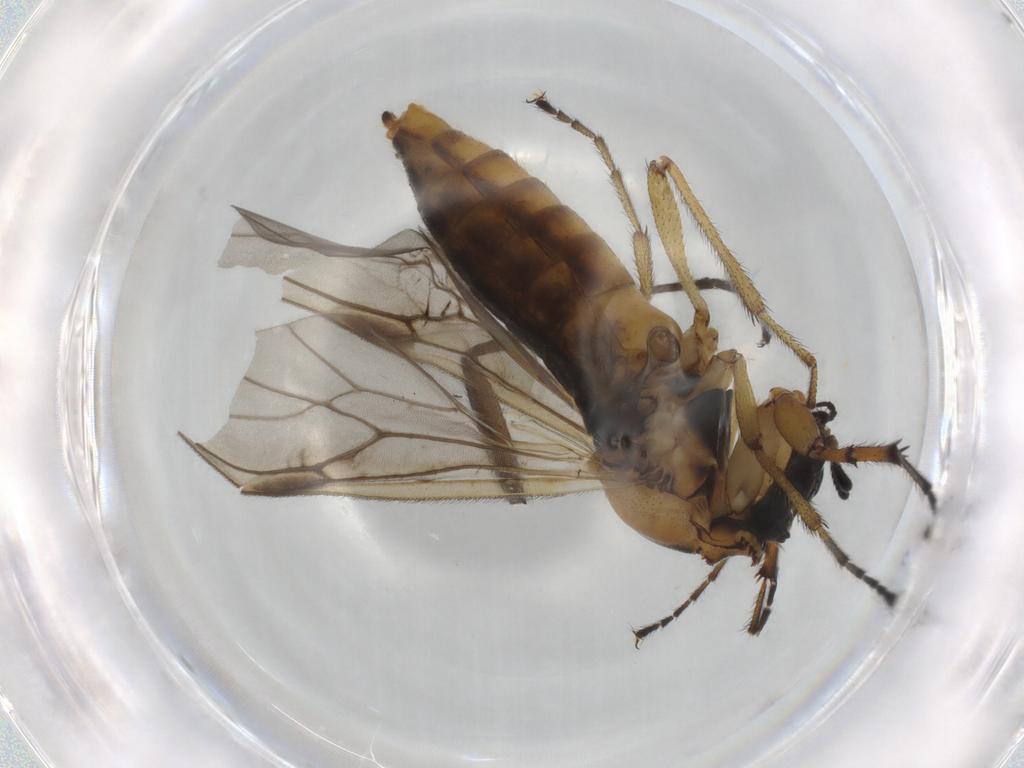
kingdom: Animalia
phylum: Arthropoda
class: Insecta
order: Diptera
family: Bibionidae
